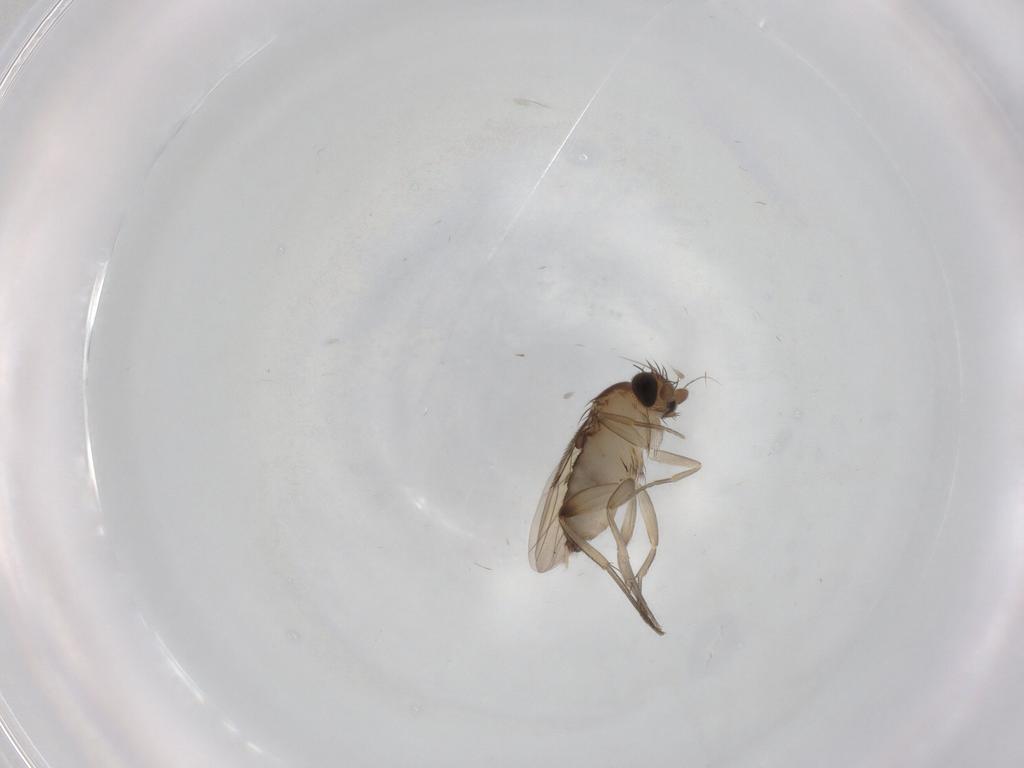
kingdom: Animalia
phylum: Arthropoda
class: Insecta
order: Diptera
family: Phoridae
